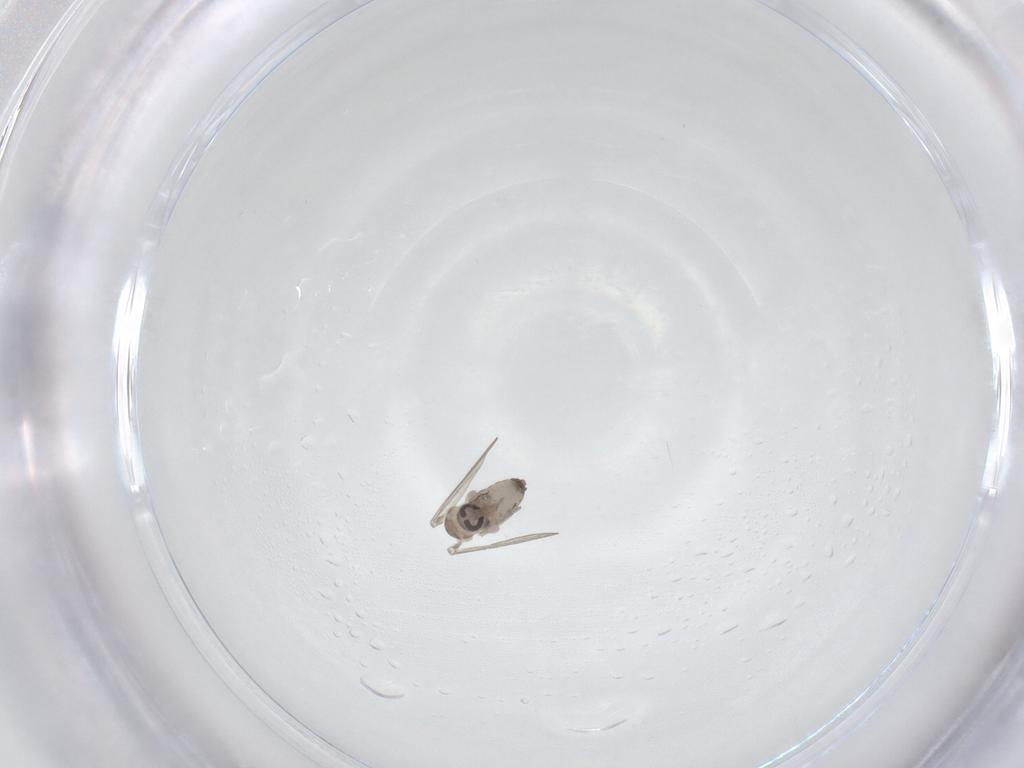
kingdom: Animalia
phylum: Arthropoda
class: Insecta
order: Diptera
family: Psychodidae
